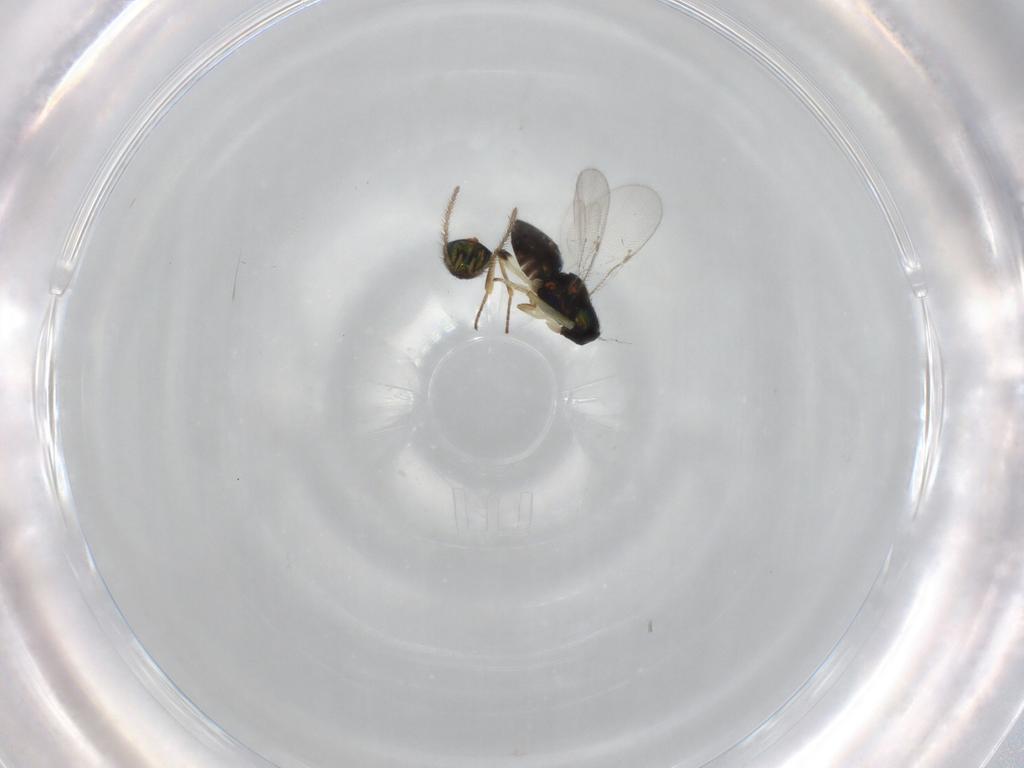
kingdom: Animalia
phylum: Arthropoda
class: Insecta
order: Hymenoptera
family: Encyrtidae
